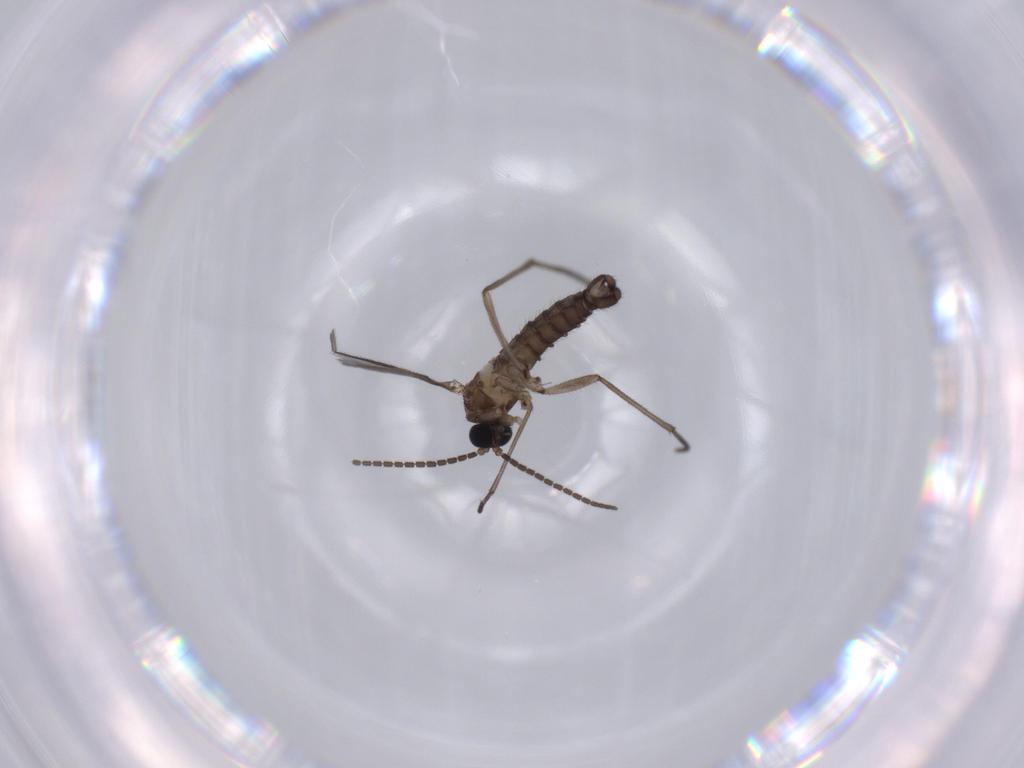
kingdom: Animalia
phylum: Arthropoda
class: Insecta
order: Diptera
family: Sciaridae
